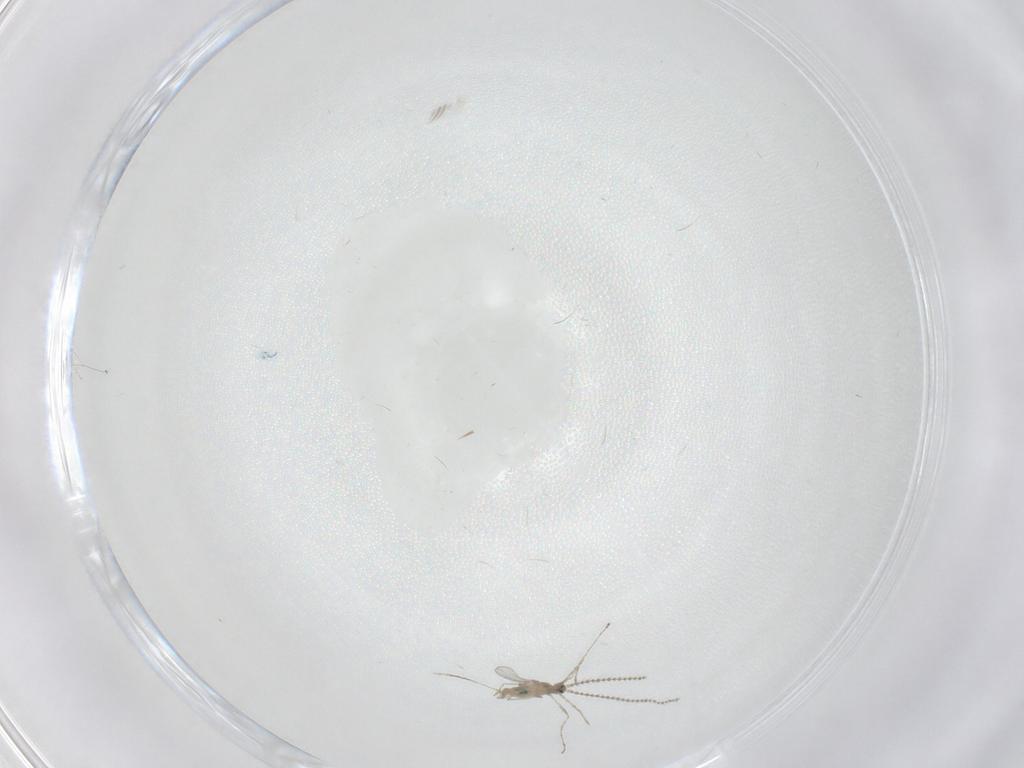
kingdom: Animalia
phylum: Arthropoda
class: Insecta
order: Diptera
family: Cecidomyiidae
